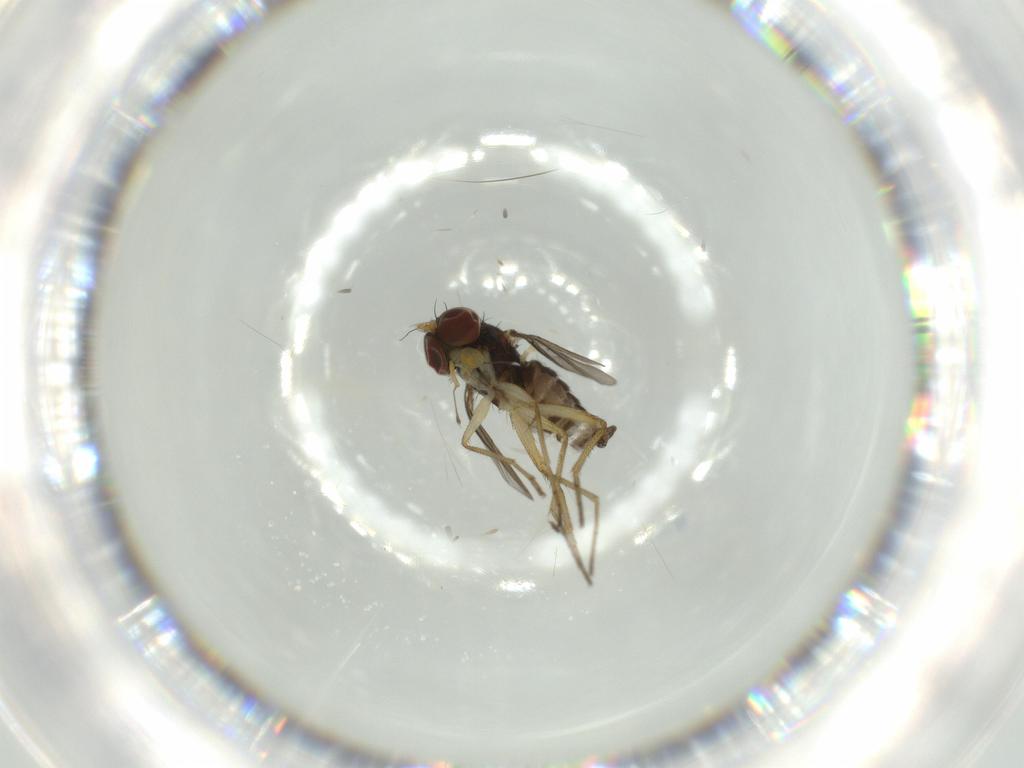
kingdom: Animalia
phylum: Arthropoda
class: Insecta
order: Diptera
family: Dolichopodidae
